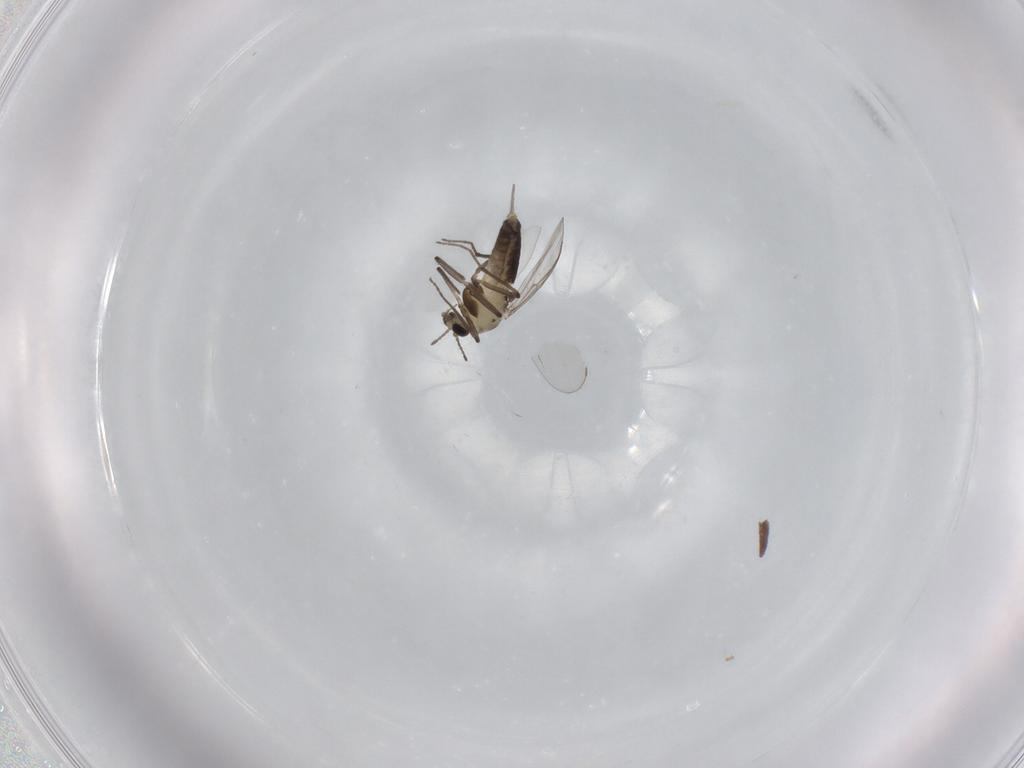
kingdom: Animalia
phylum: Arthropoda
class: Insecta
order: Diptera
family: Chironomidae
